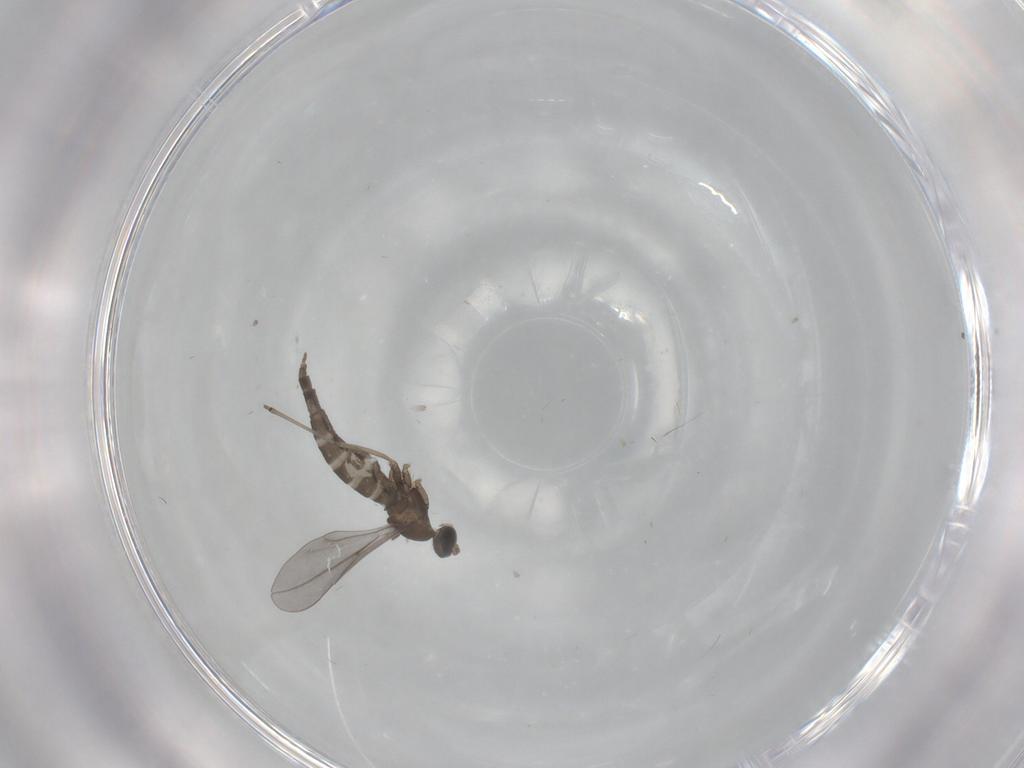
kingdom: Animalia
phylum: Arthropoda
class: Insecta
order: Diptera
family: Cecidomyiidae
